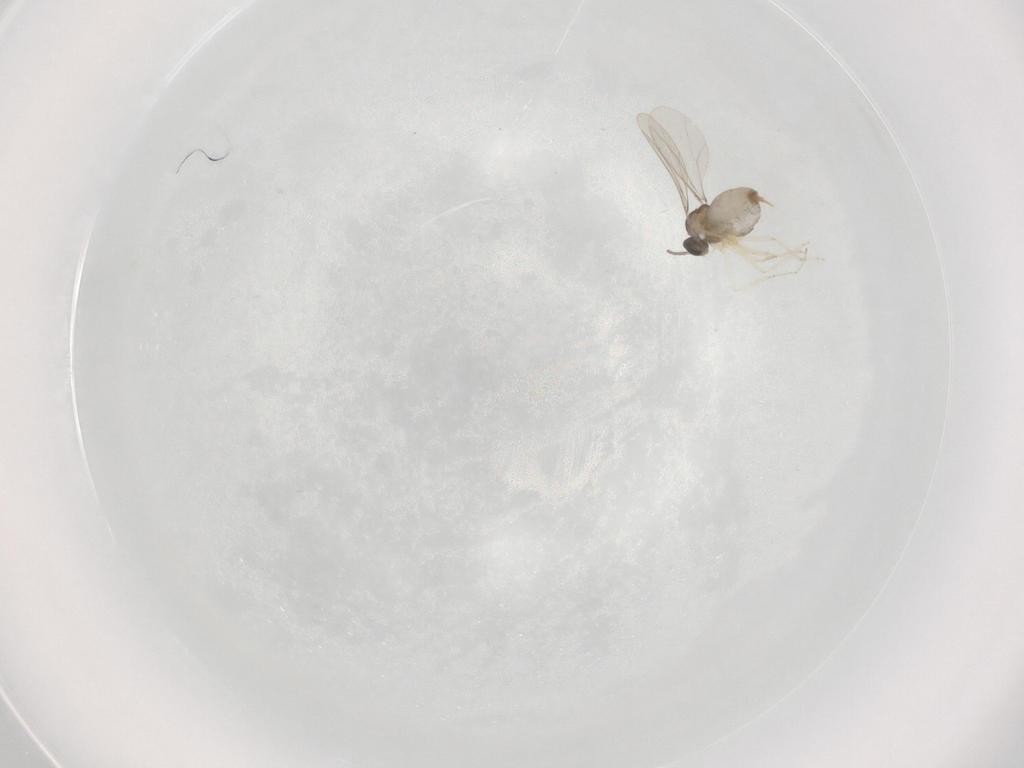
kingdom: Animalia
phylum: Arthropoda
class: Insecta
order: Diptera
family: Cecidomyiidae
